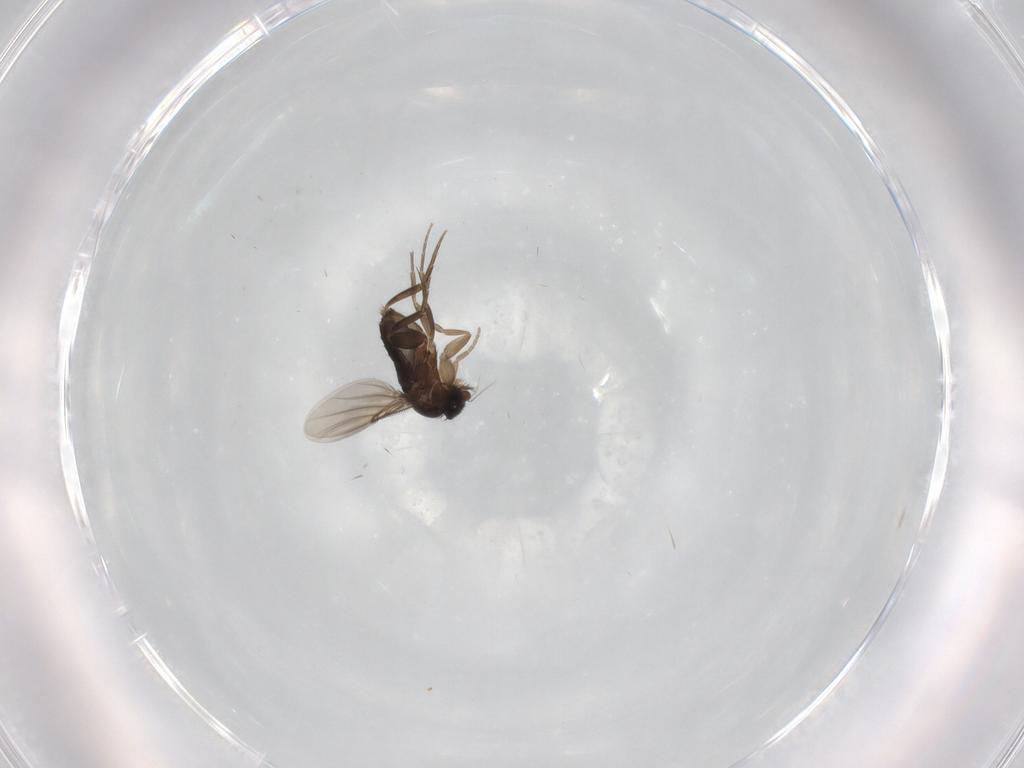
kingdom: Animalia
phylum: Arthropoda
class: Insecta
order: Diptera
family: Phoridae
